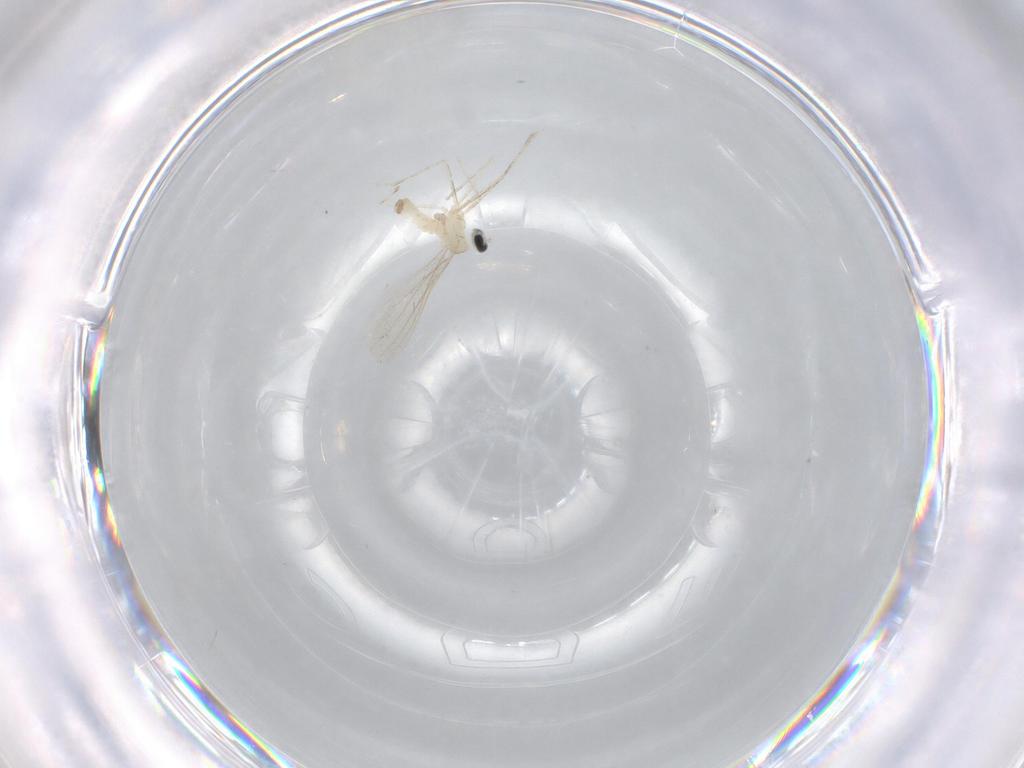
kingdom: Animalia
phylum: Arthropoda
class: Insecta
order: Diptera
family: Cecidomyiidae
